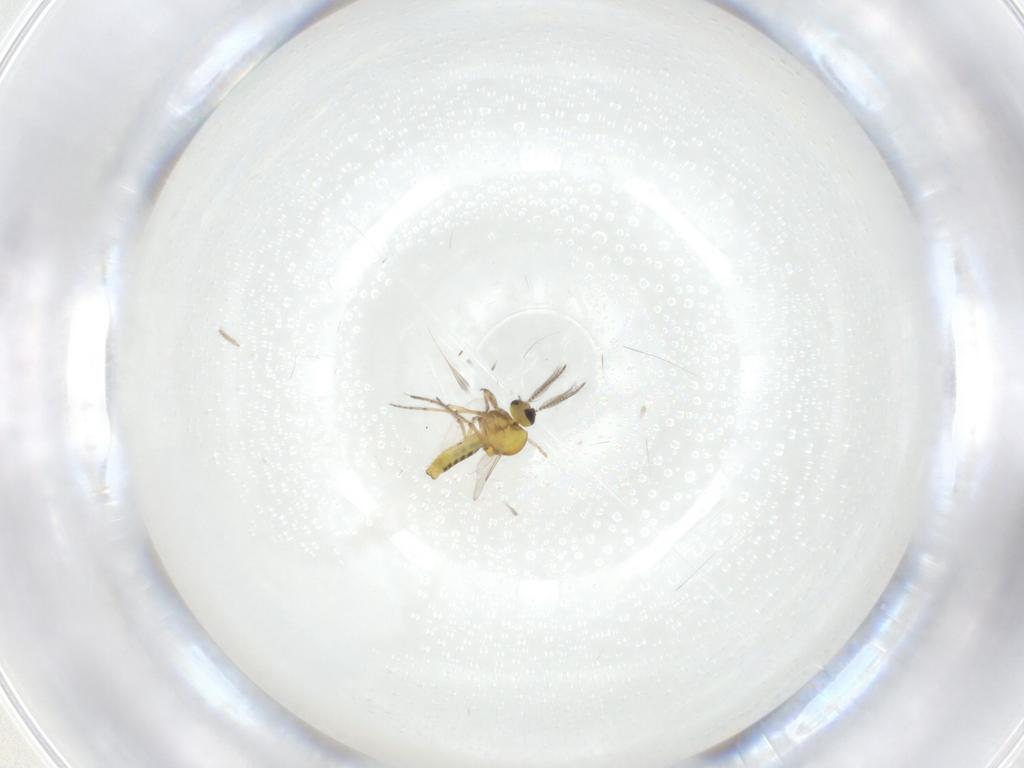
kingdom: Animalia
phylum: Arthropoda
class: Insecta
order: Diptera
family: Ceratopogonidae
